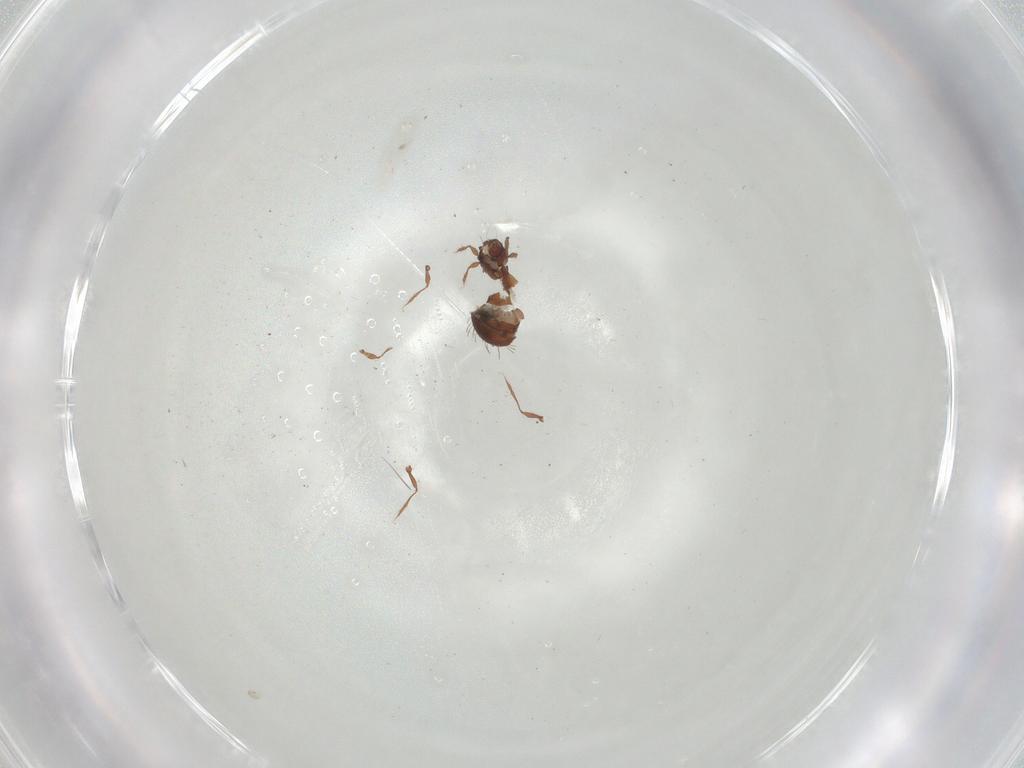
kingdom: Animalia
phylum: Arthropoda
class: Arachnida
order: Sarcoptiformes
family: Caloppiidae
